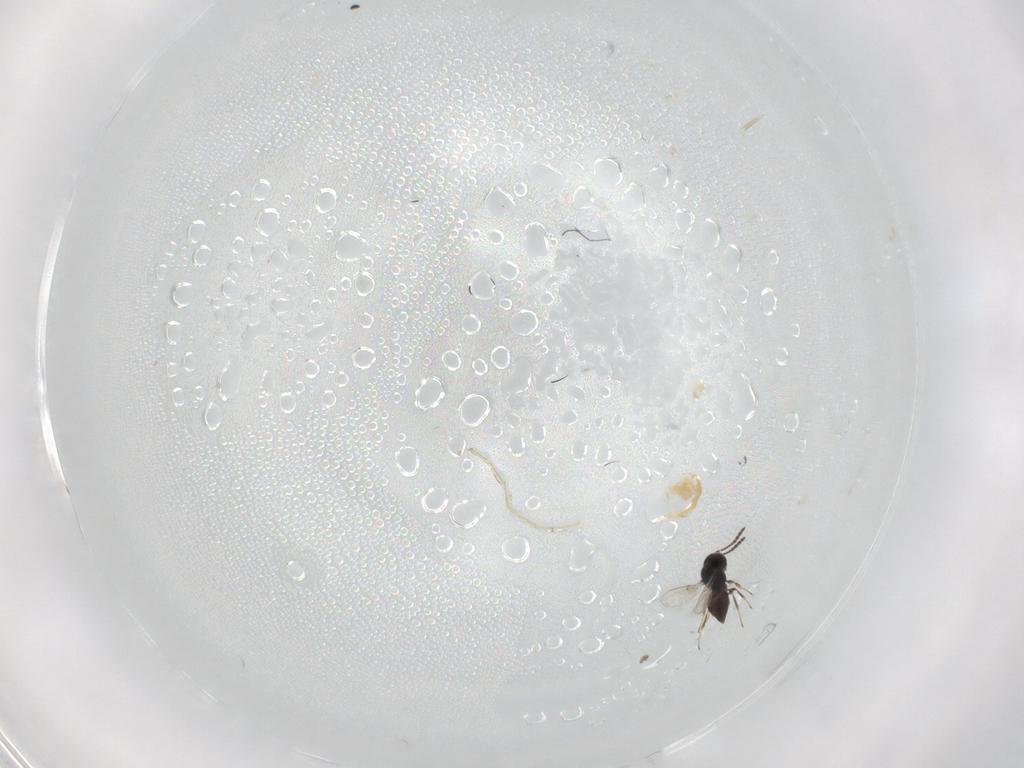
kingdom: Animalia
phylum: Arthropoda
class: Insecta
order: Hymenoptera
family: Scelionidae
